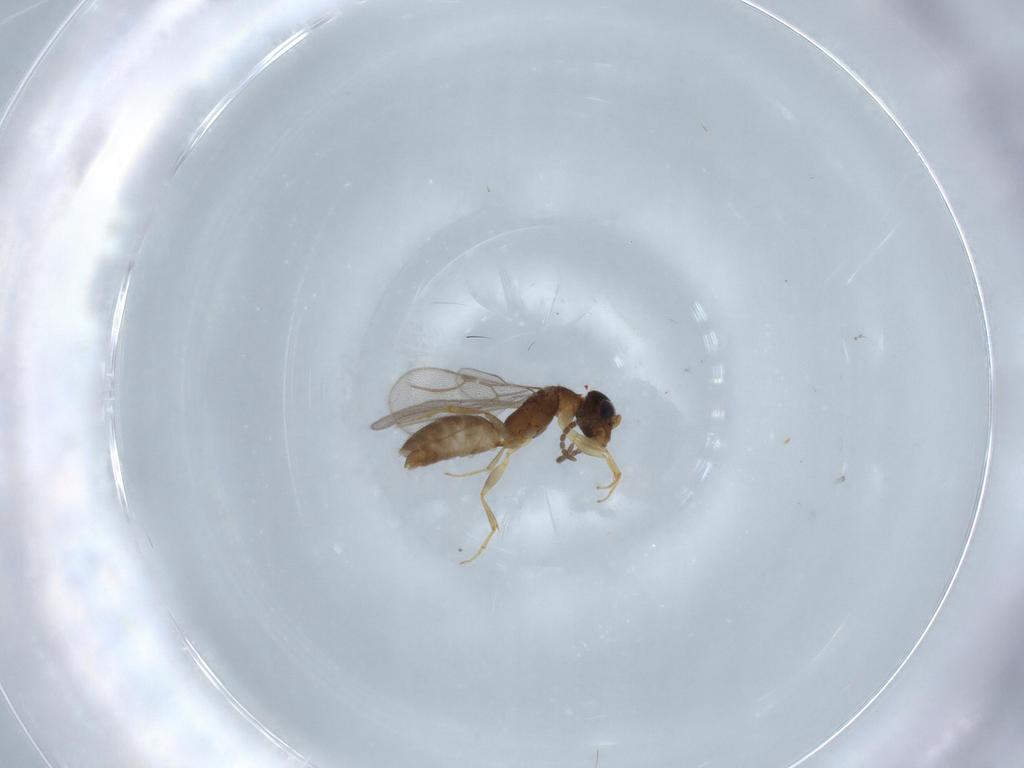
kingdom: Animalia
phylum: Arthropoda
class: Insecta
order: Hymenoptera
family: Bethylidae
